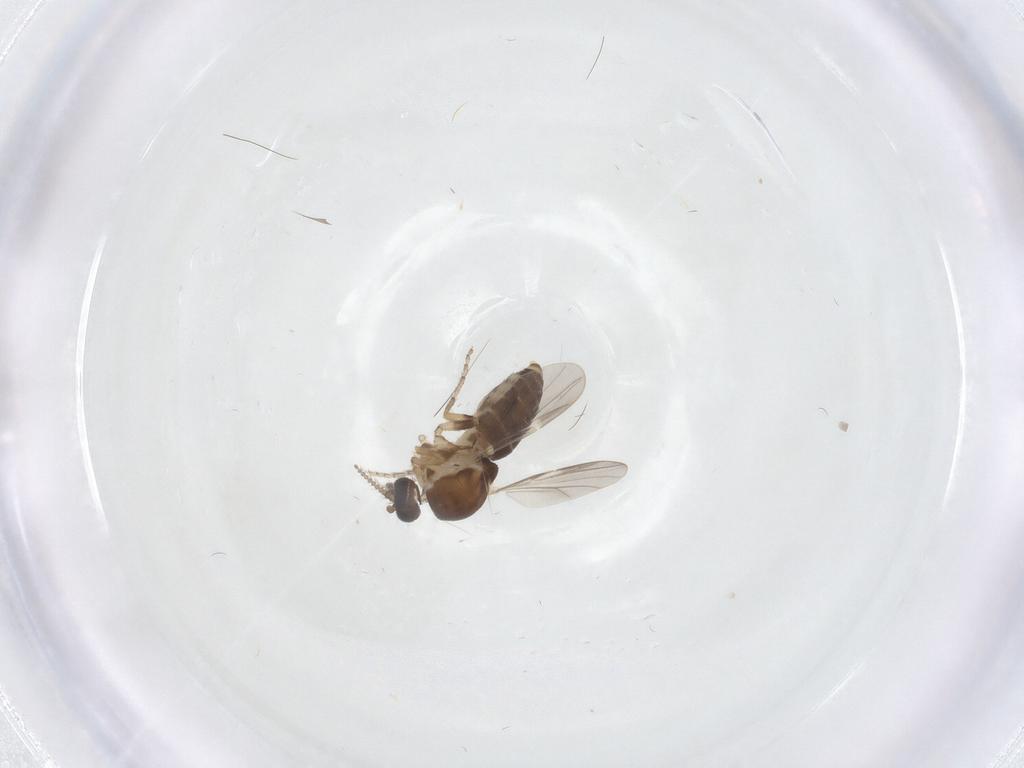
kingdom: Animalia
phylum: Arthropoda
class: Insecta
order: Diptera
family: Ceratopogonidae
